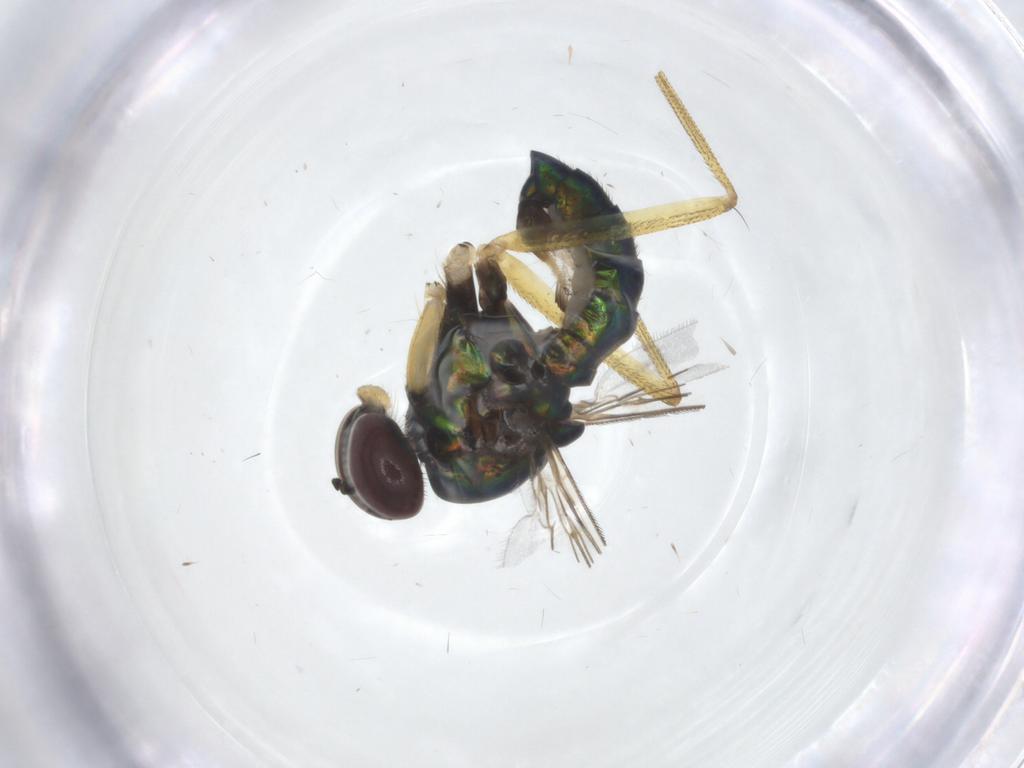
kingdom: Animalia
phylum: Arthropoda
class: Insecta
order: Diptera
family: Dolichopodidae
